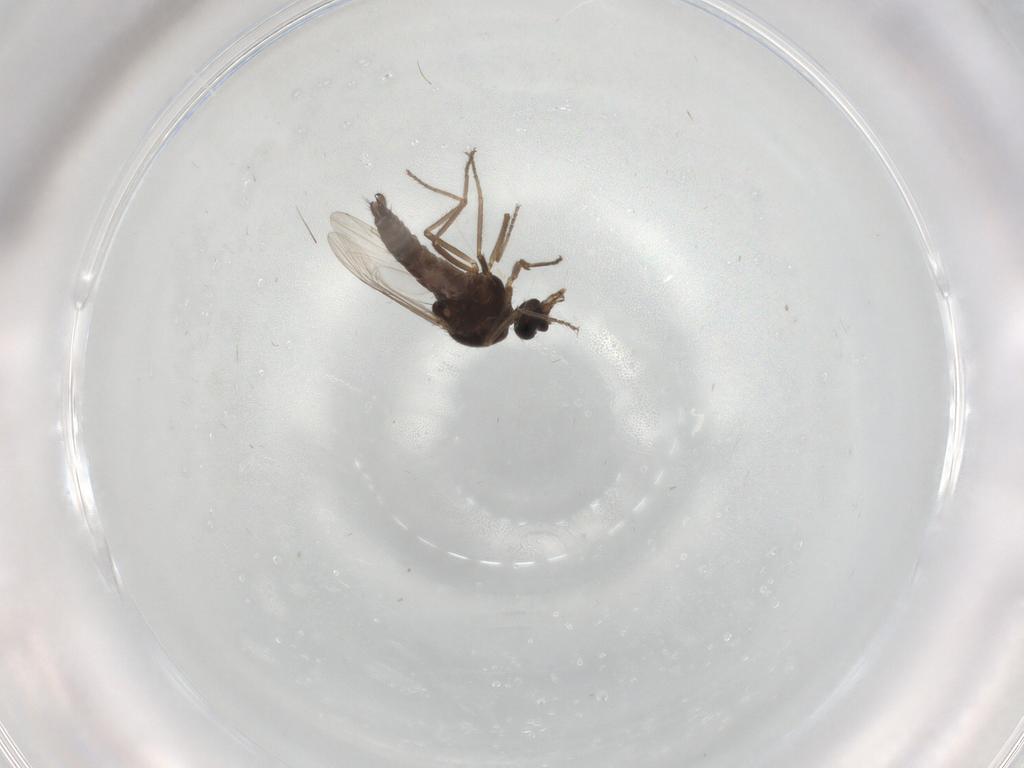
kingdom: Animalia
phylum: Arthropoda
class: Insecta
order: Diptera
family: Ceratopogonidae
